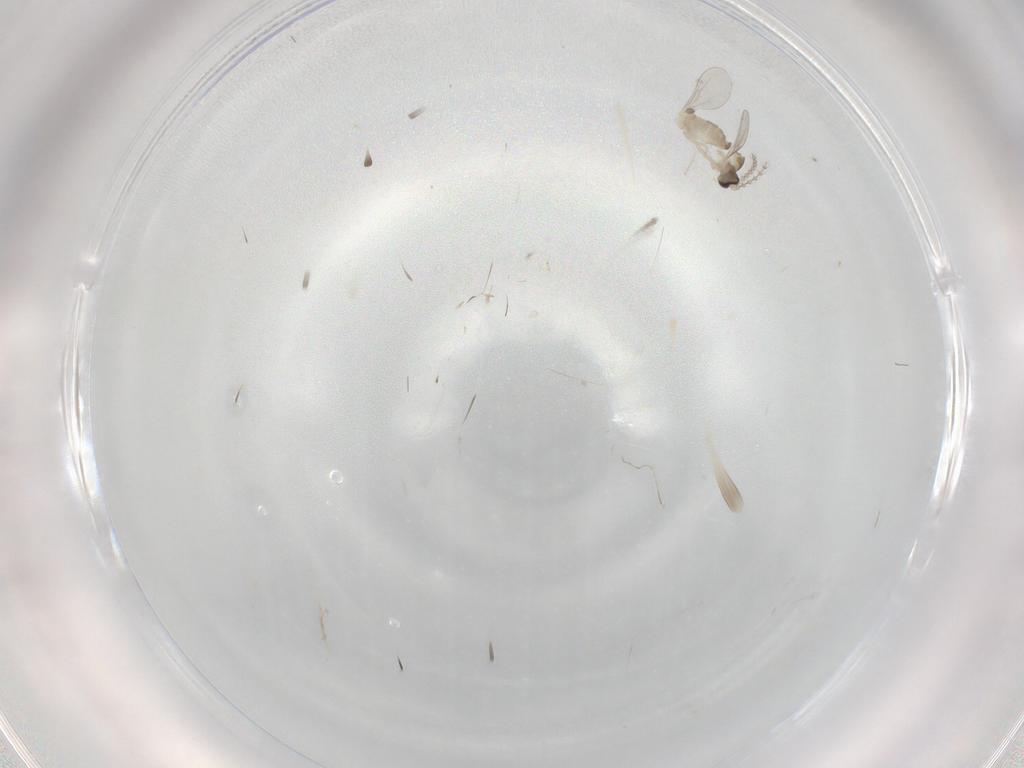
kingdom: Animalia
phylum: Arthropoda
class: Insecta
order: Diptera
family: Cecidomyiidae
